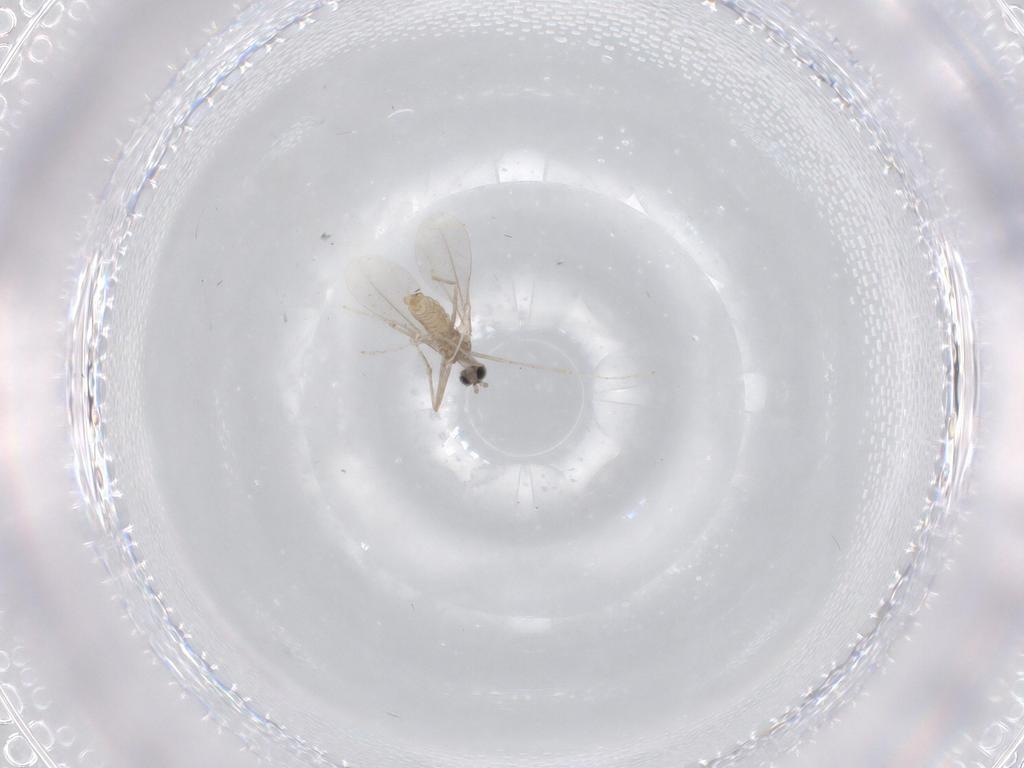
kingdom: Animalia
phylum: Arthropoda
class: Insecta
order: Diptera
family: Cecidomyiidae
